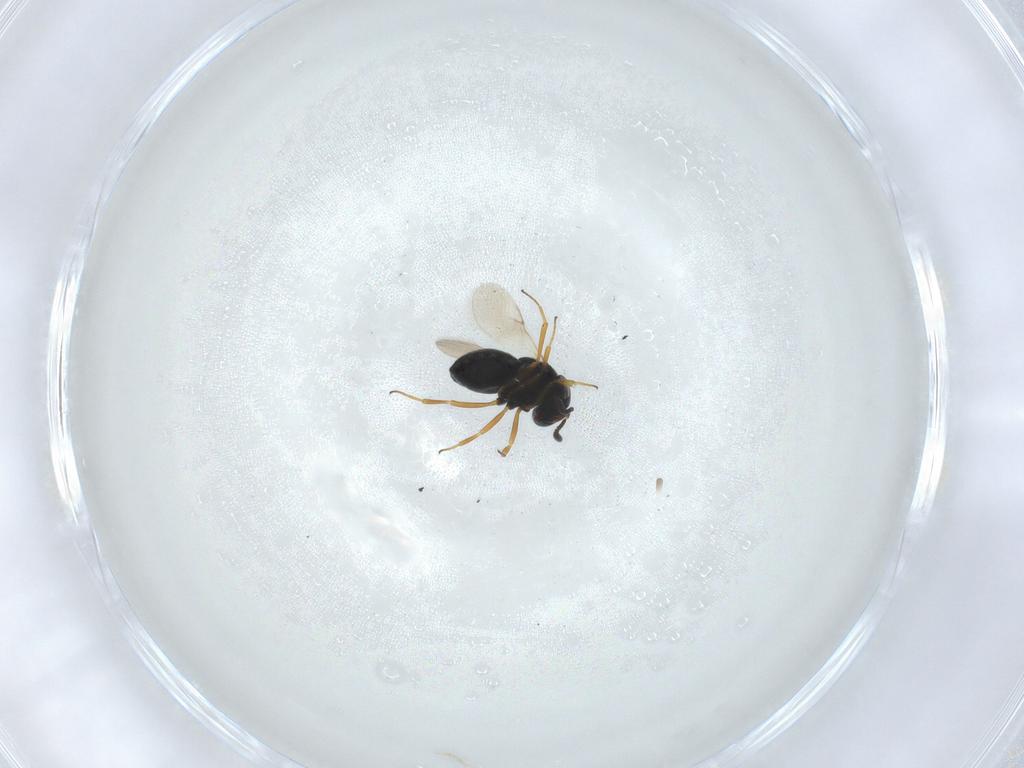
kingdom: Animalia
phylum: Arthropoda
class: Insecta
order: Hymenoptera
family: Scelionidae
